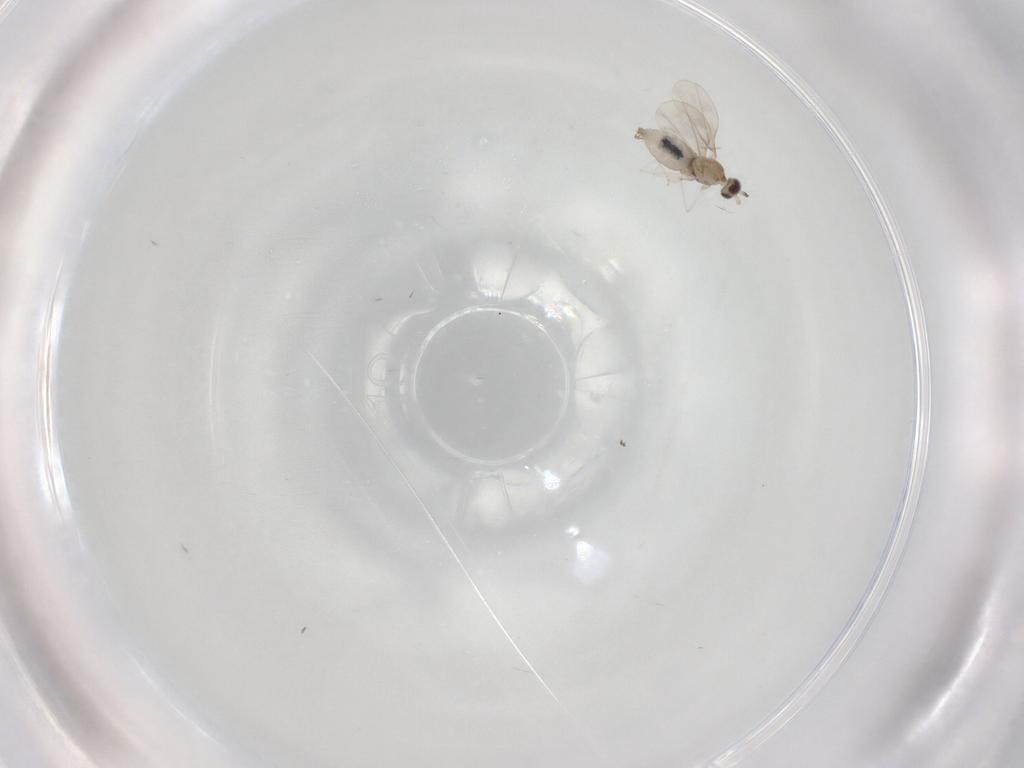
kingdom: Animalia
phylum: Arthropoda
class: Insecta
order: Diptera
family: Cecidomyiidae
